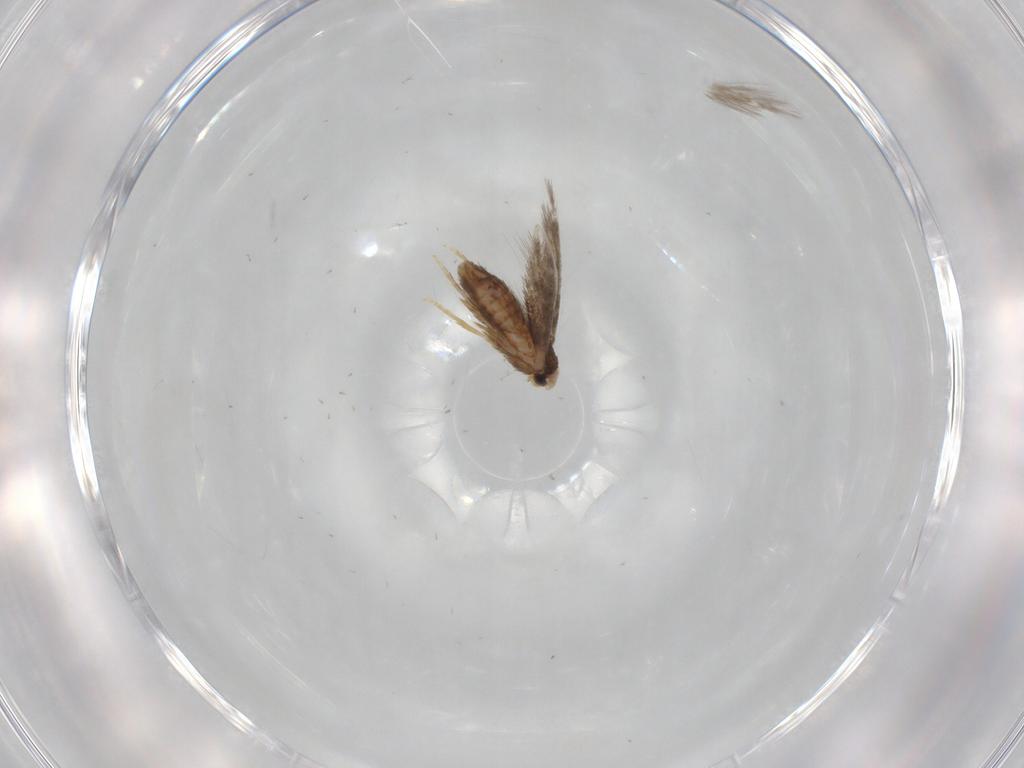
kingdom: Animalia
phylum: Arthropoda
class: Insecta
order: Lepidoptera
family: Nepticulidae
